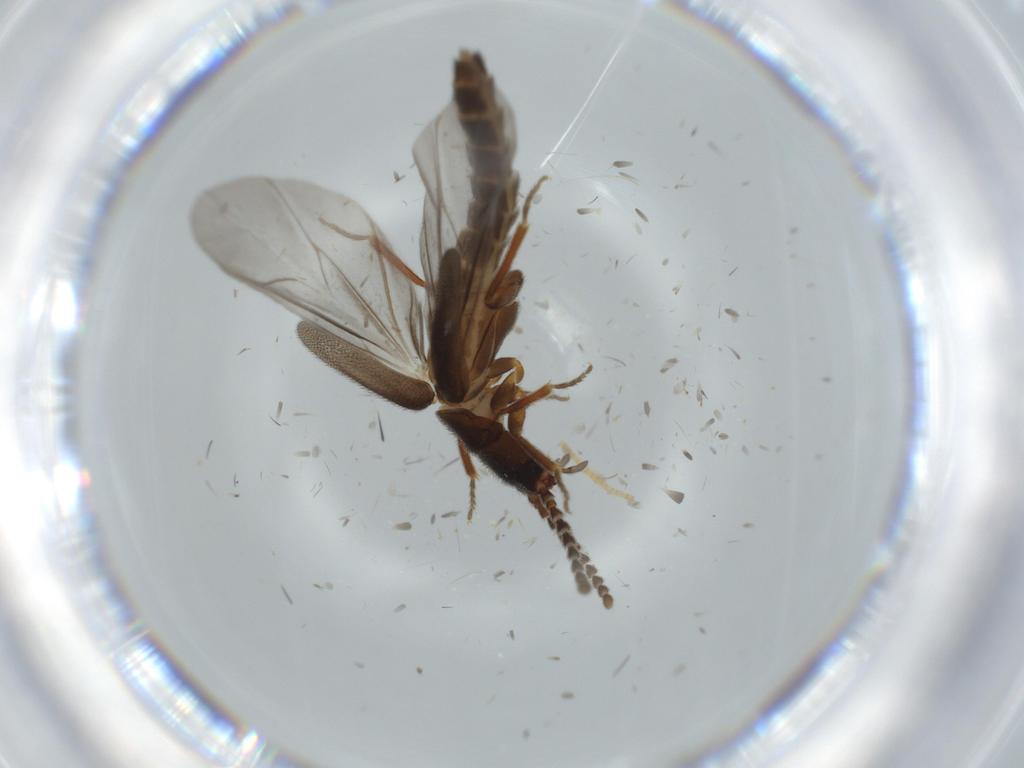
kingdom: Animalia
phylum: Arthropoda
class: Insecta
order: Coleoptera
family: Omethidae
